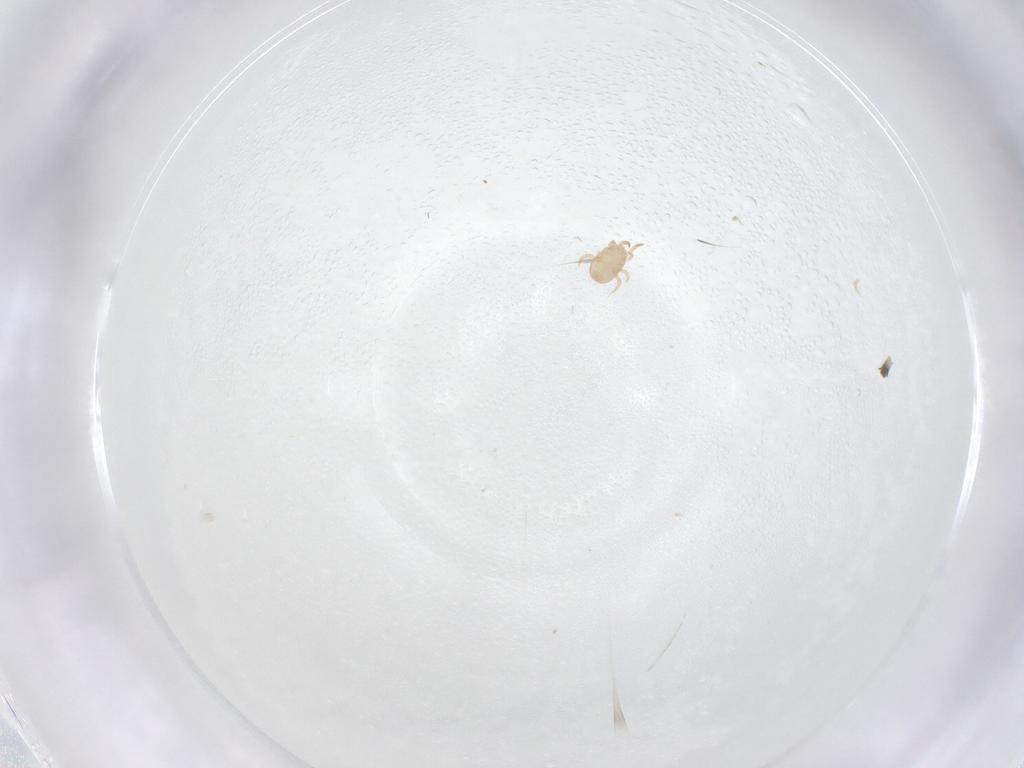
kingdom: Animalia
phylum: Arthropoda
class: Arachnida
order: Mesostigmata
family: Ameroseiidae
